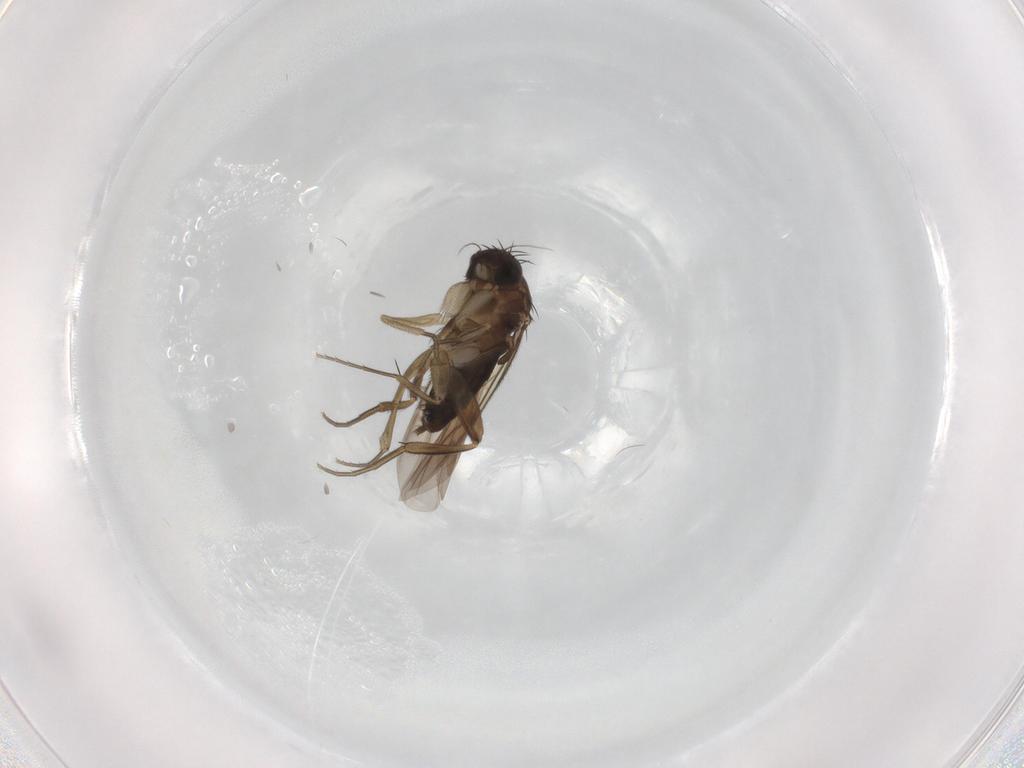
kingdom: Animalia
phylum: Arthropoda
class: Insecta
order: Diptera
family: Phoridae
